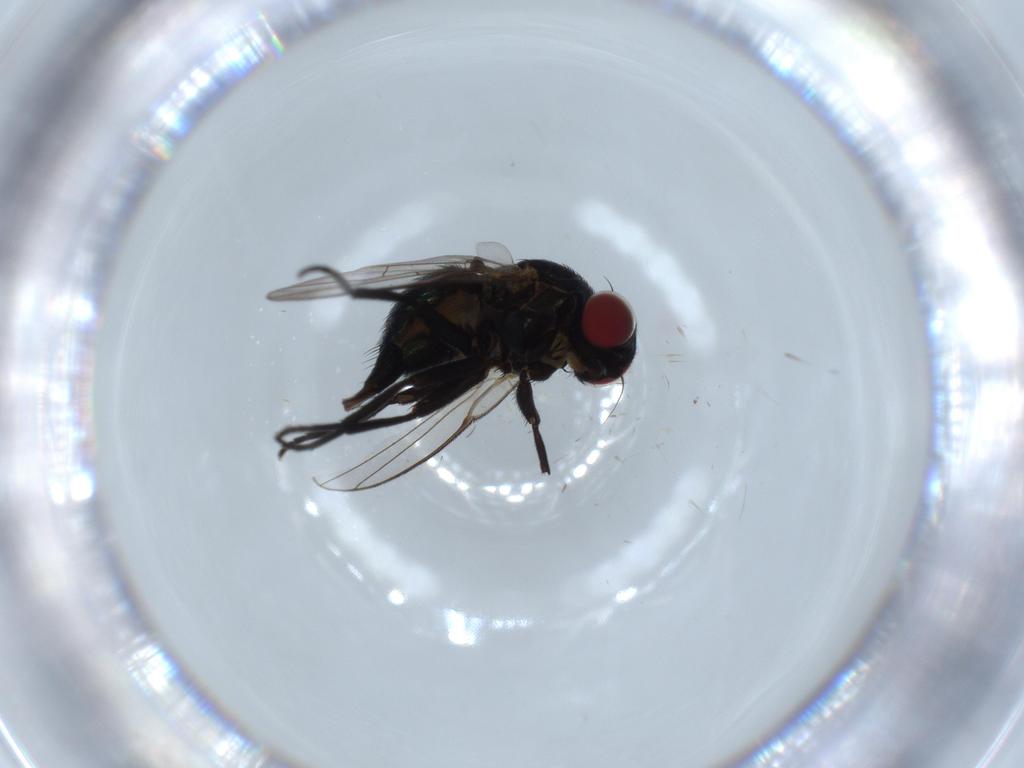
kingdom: Animalia
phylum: Arthropoda
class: Insecta
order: Diptera
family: Agromyzidae
